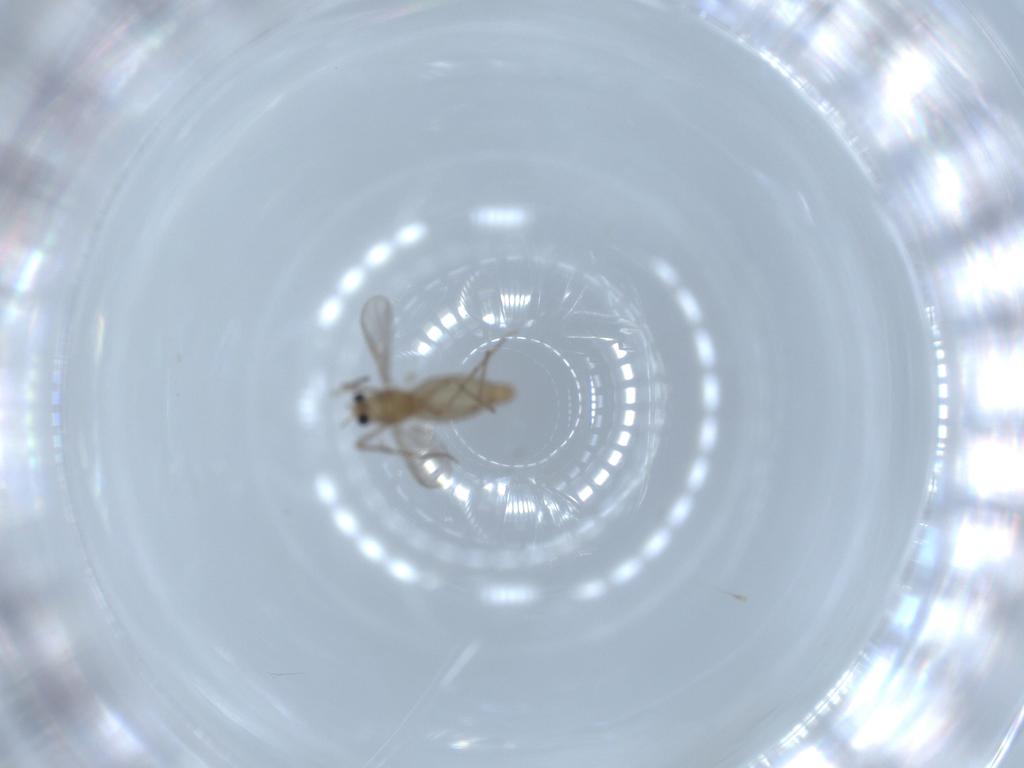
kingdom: Animalia
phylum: Arthropoda
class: Insecta
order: Diptera
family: Chironomidae
